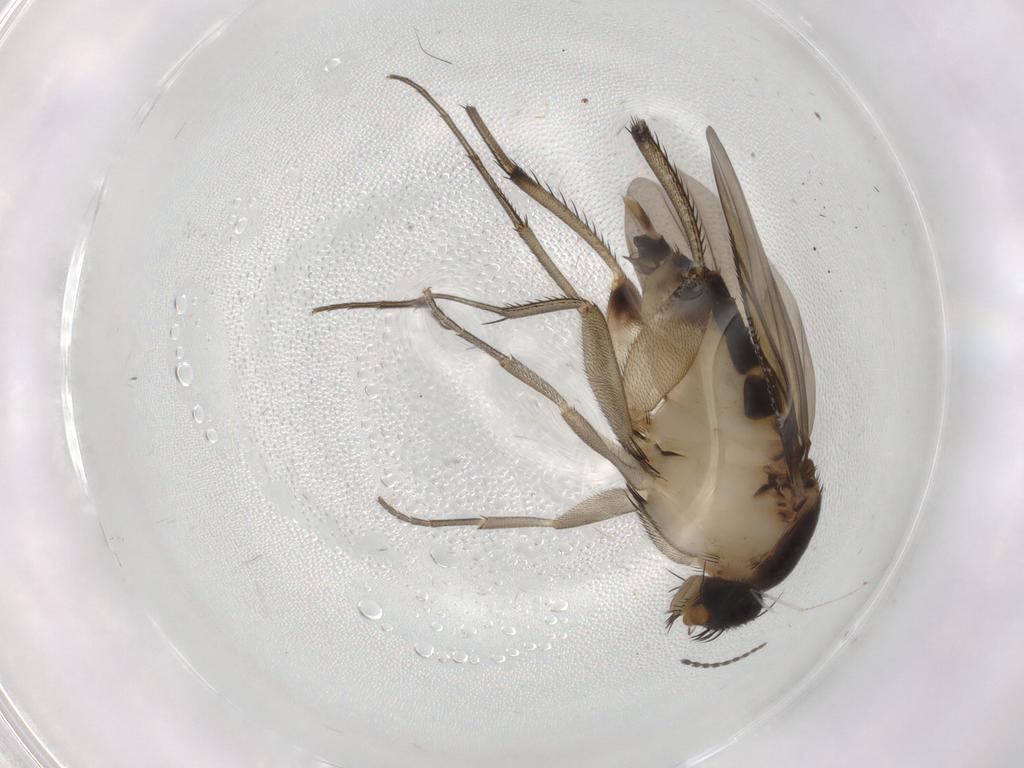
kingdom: Animalia
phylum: Arthropoda
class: Insecta
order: Diptera
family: Phoridae
